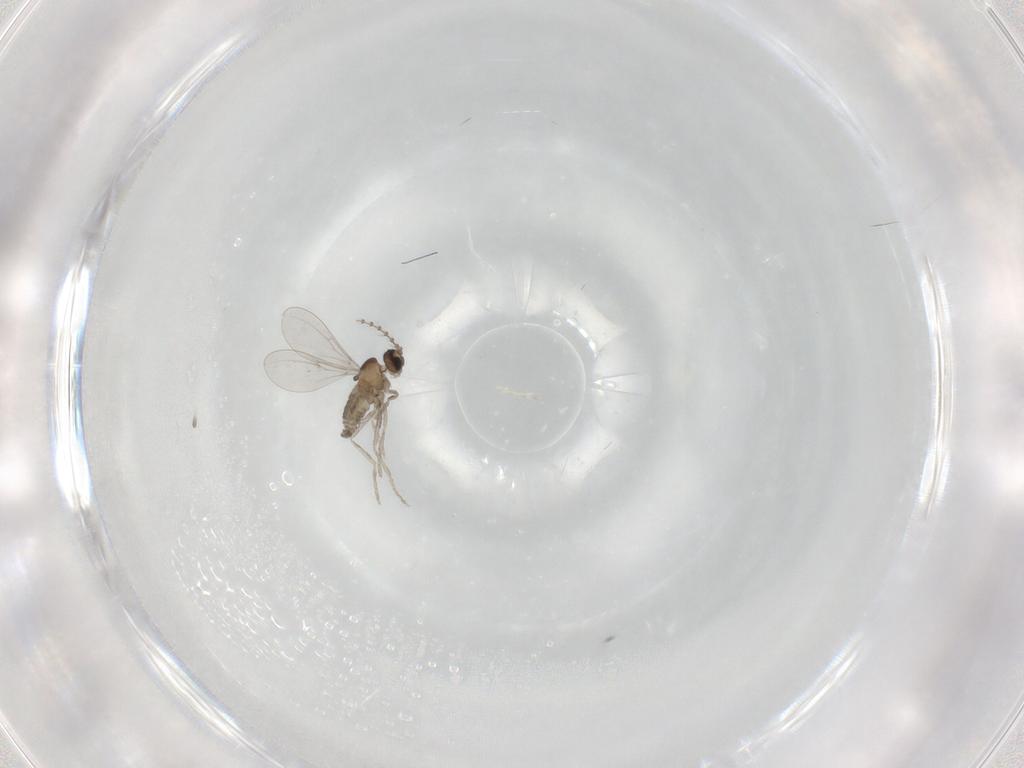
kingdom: Animalia
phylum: Arthropoda
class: Insecta
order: Diptera
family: Cecidomyiidae
